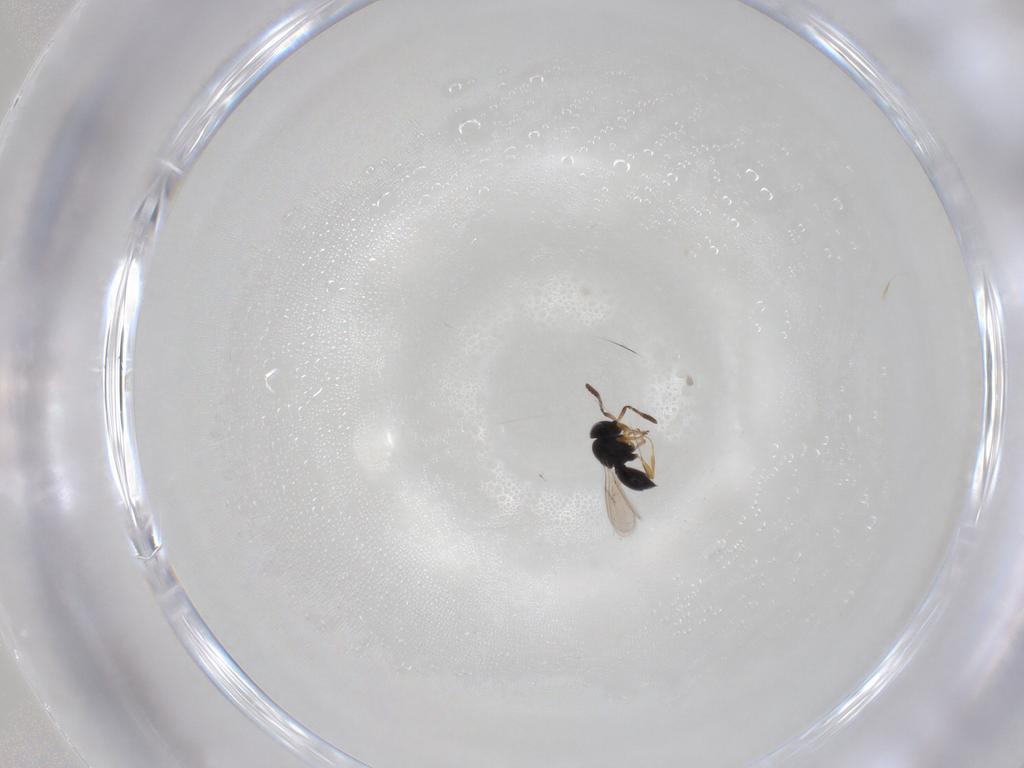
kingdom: Animalia
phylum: Arthropoda
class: Insecta
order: Hymenoptera
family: Scelionidae
